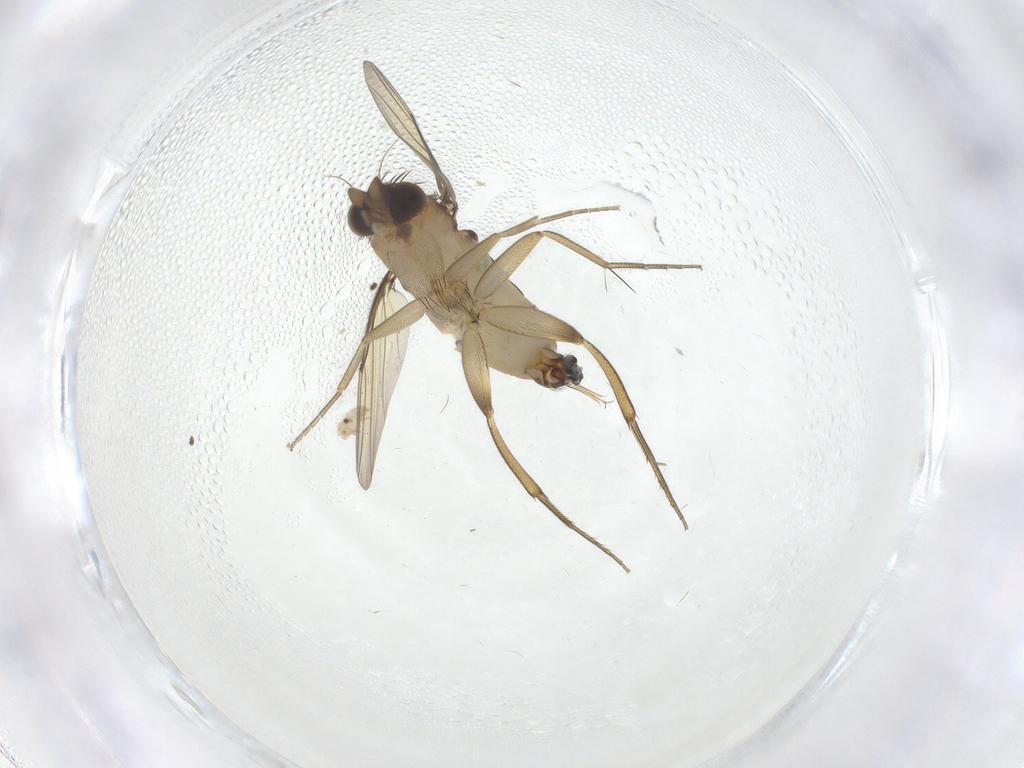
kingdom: Animalia
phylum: Arthropoda
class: Insecta
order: Diptera
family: Phoridae
